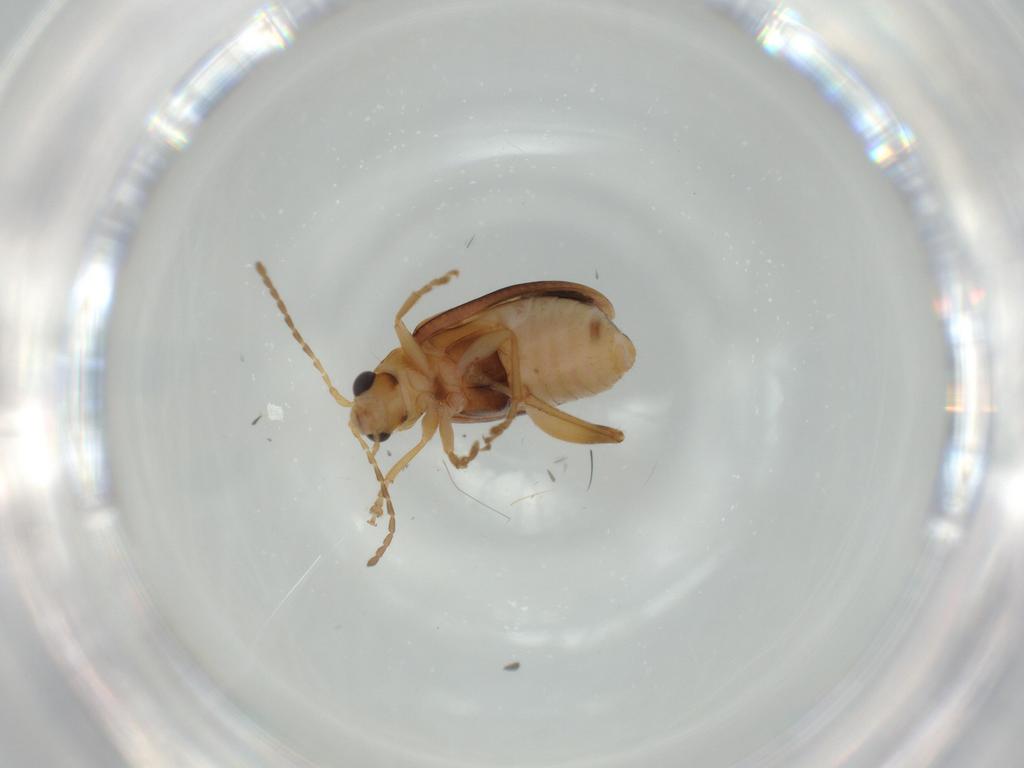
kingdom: Animalia
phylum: Arthropoda
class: Insecta
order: Coleoptera
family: Chrysomelidae
